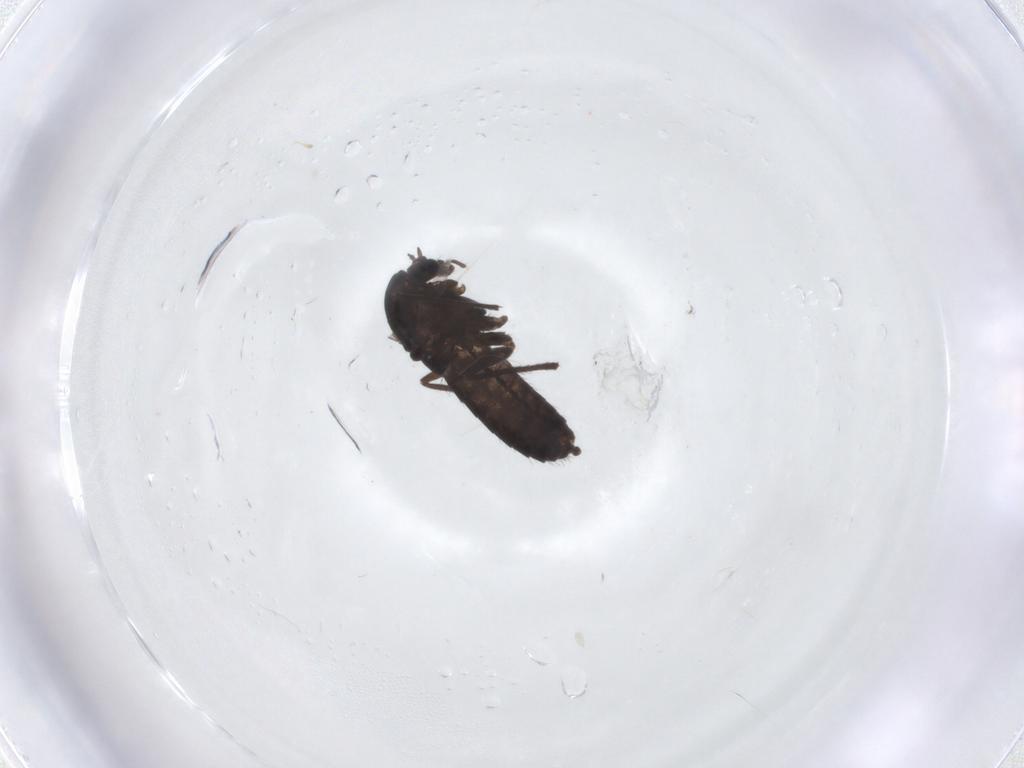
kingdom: Animalia
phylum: Arthropoda
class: Insecta
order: Diptera
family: Chironomidae
